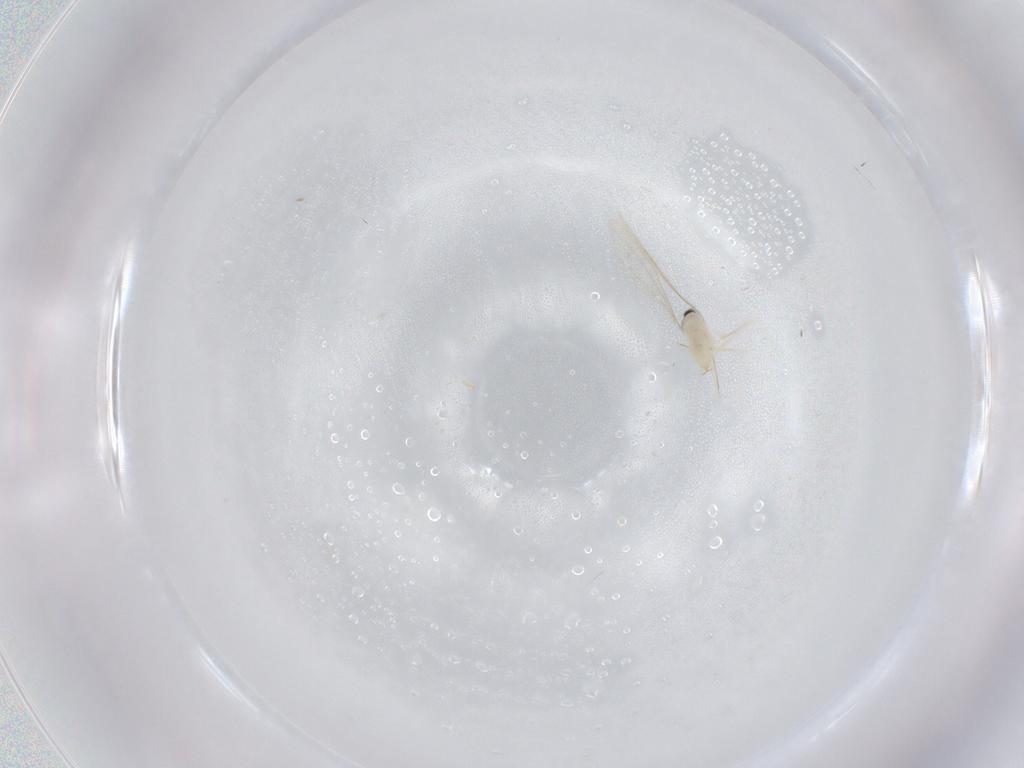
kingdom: Animalia
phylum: Arthropoda
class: Insecta
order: Diptera
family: Cecidomyiidae
